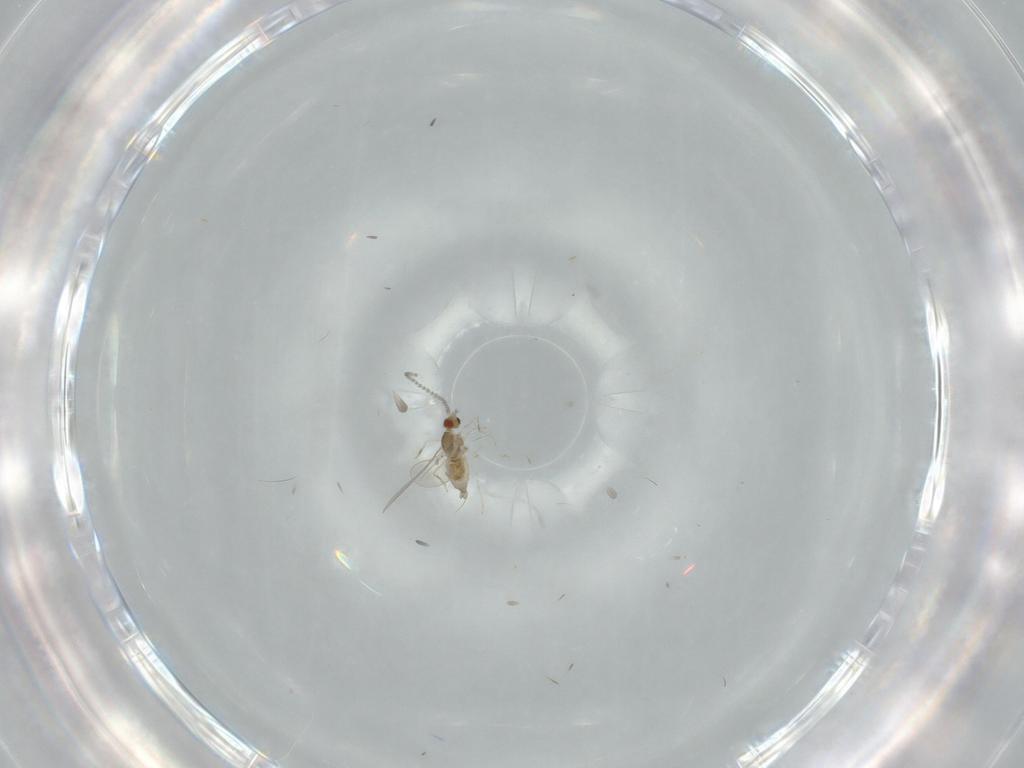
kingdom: Animalia
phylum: Arthropoda
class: Insecta
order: Diptera
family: Cecidomyiidae
